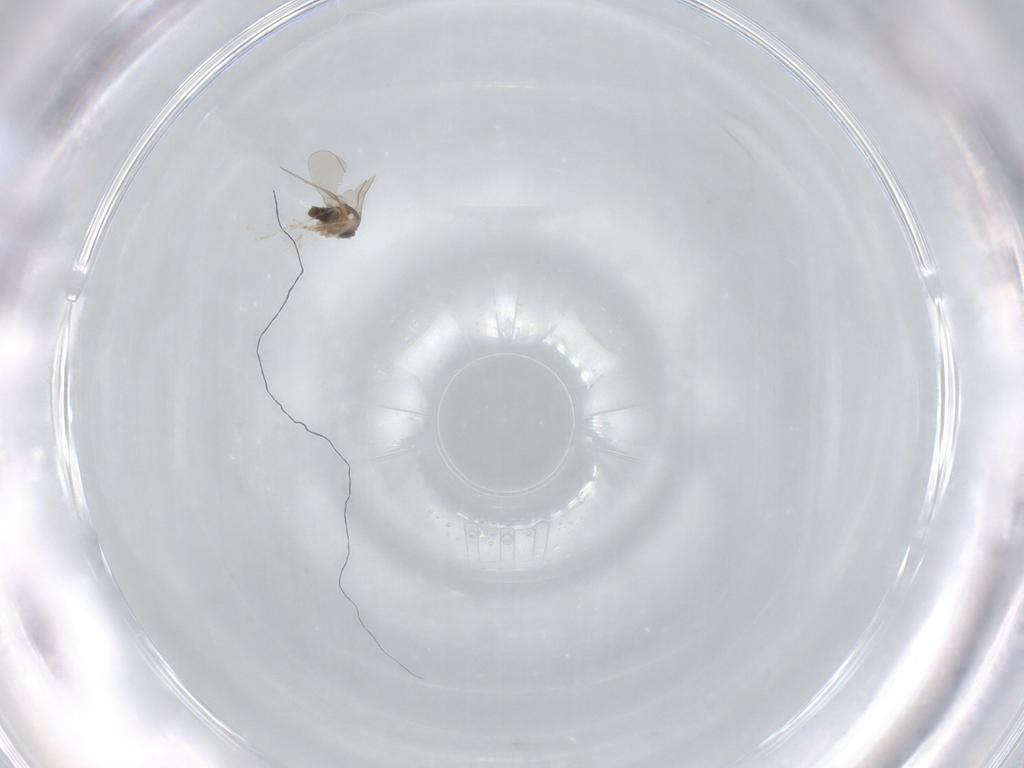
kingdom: Animalia
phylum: Arthropoda
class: Insecta
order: Diptera
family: Cecidomyiidae
